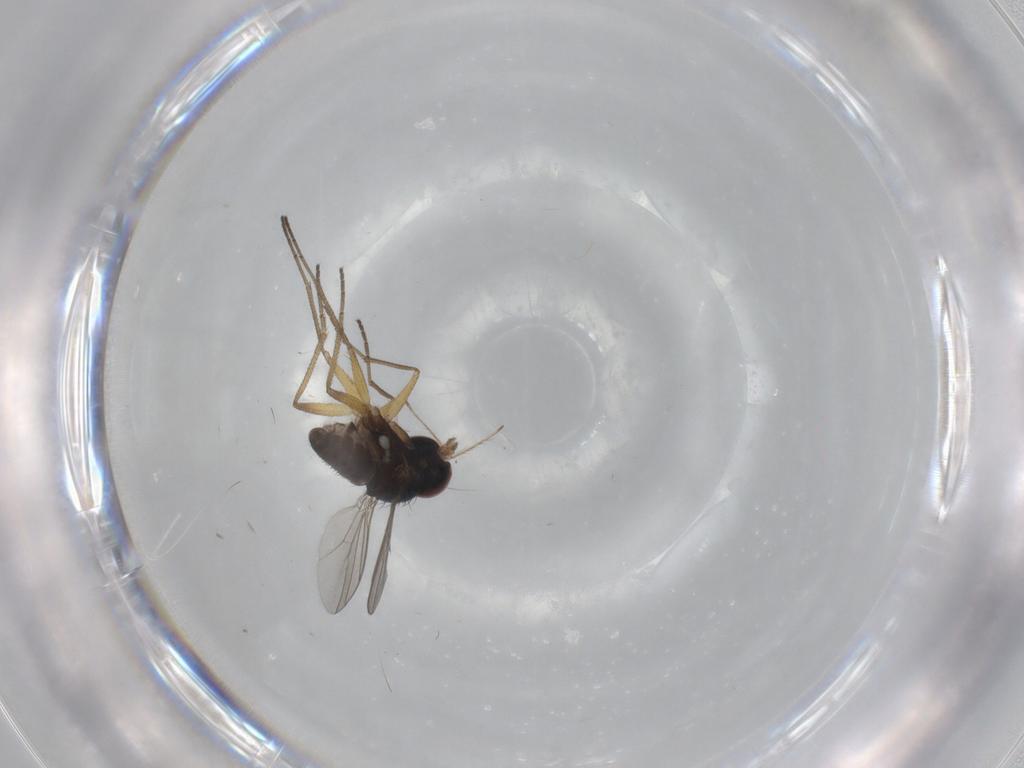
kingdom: Animalia
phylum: Arthropoda
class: Insecta
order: Diptera
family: Dolichopodidae
